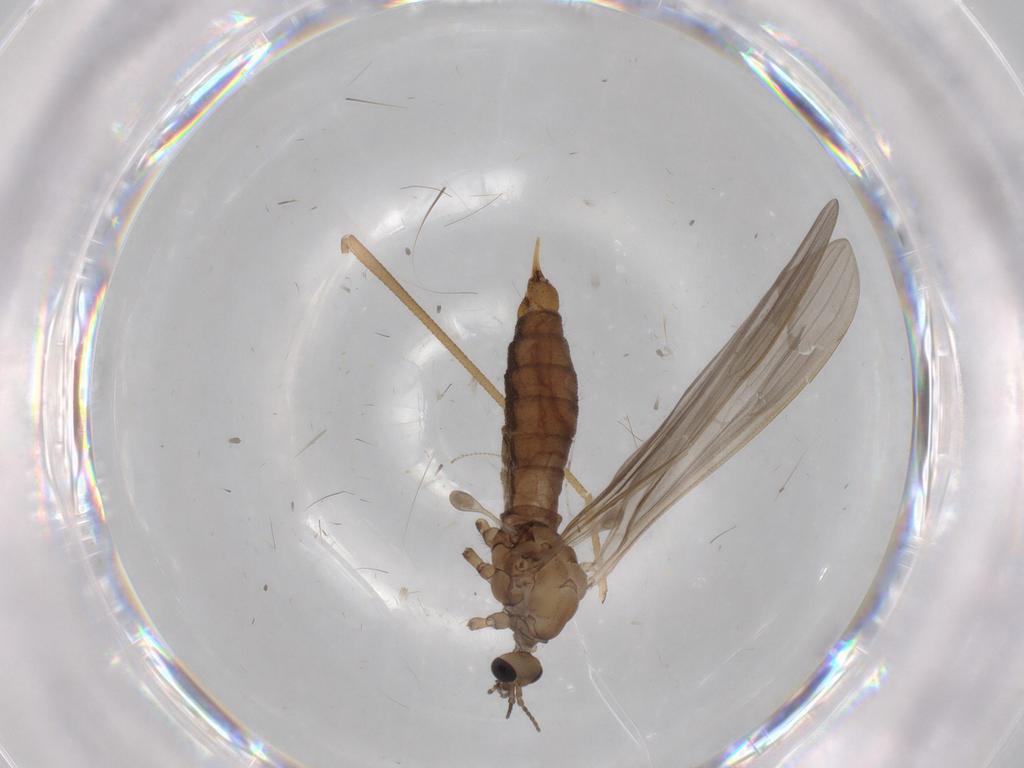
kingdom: Animalia
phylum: Arthropoda
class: Insecta
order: Diptera
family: Limoniidae
